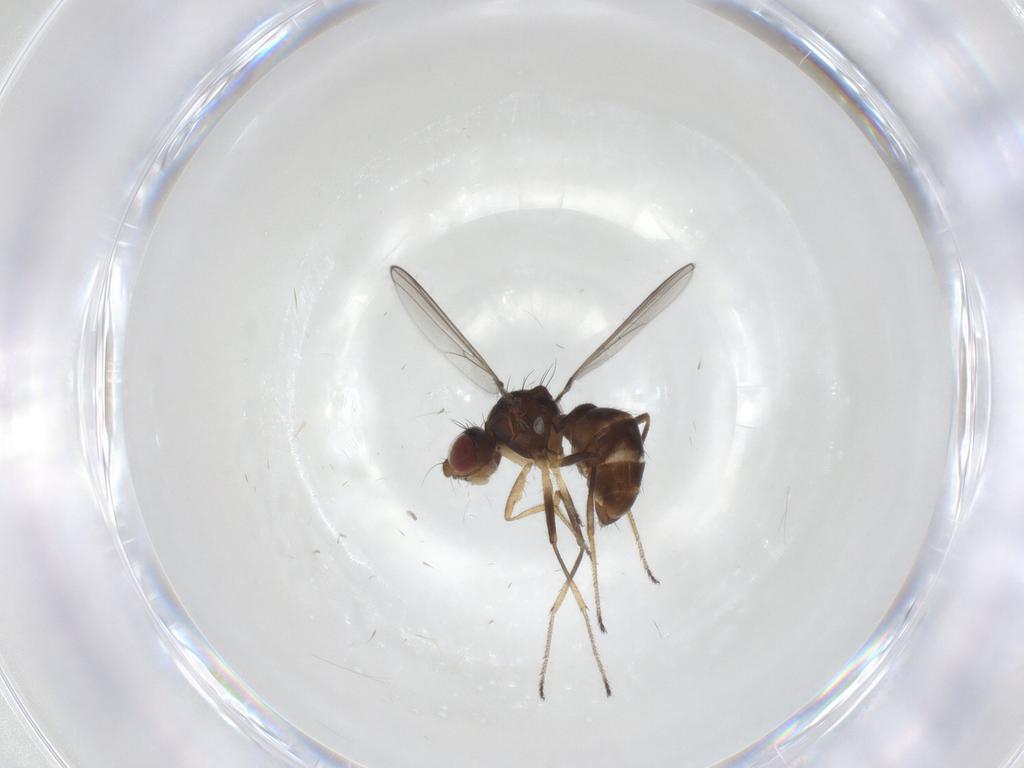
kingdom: Animalia
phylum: Arthropoda
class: Insecta
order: Diptera
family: Sepsidae
